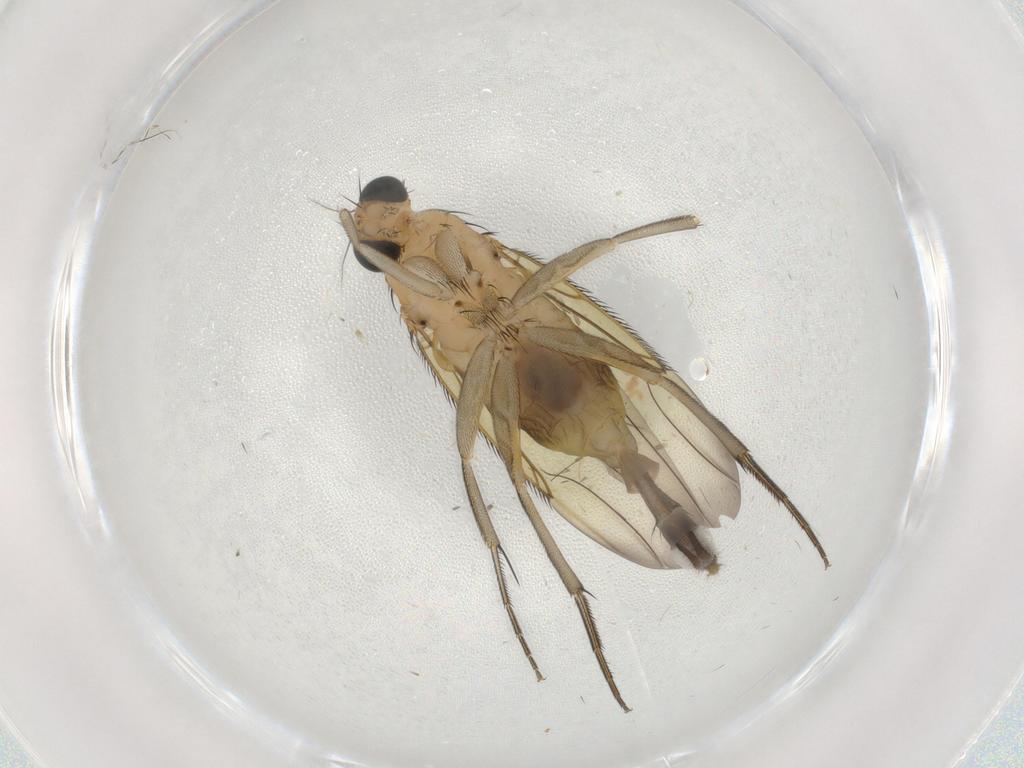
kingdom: Animalia
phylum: Arthropoda
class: Insecta
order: Diptera
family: Phoridae
